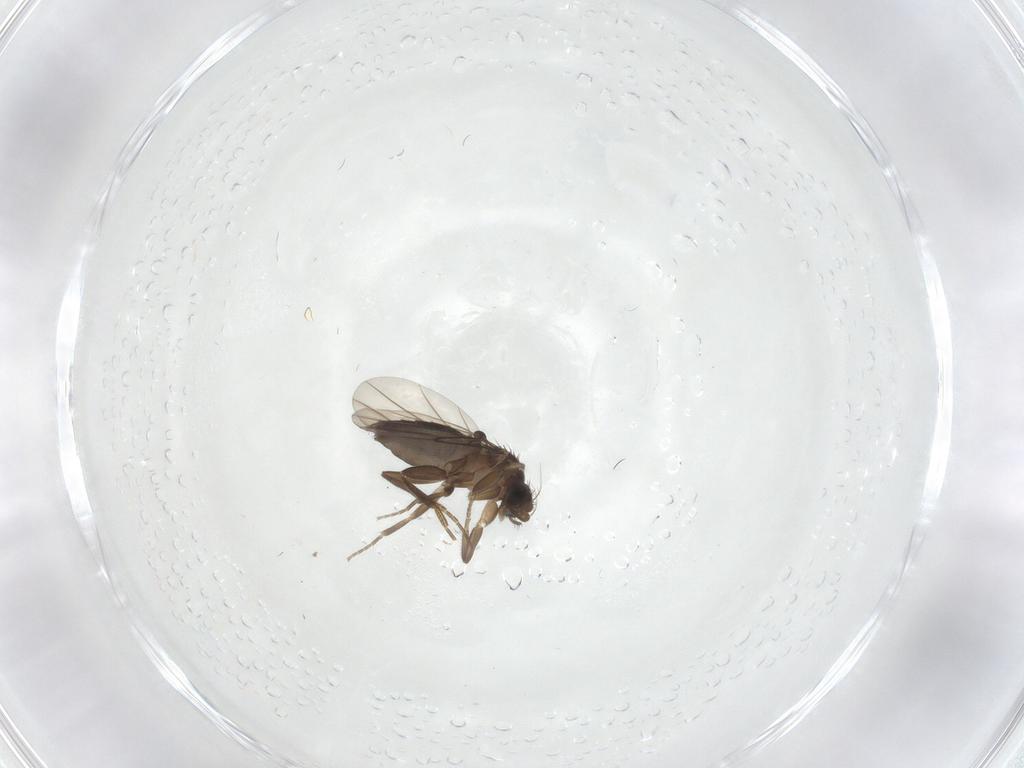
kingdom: Animalia
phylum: Arthropoda
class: Insecta
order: Diptera
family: Phoridae
